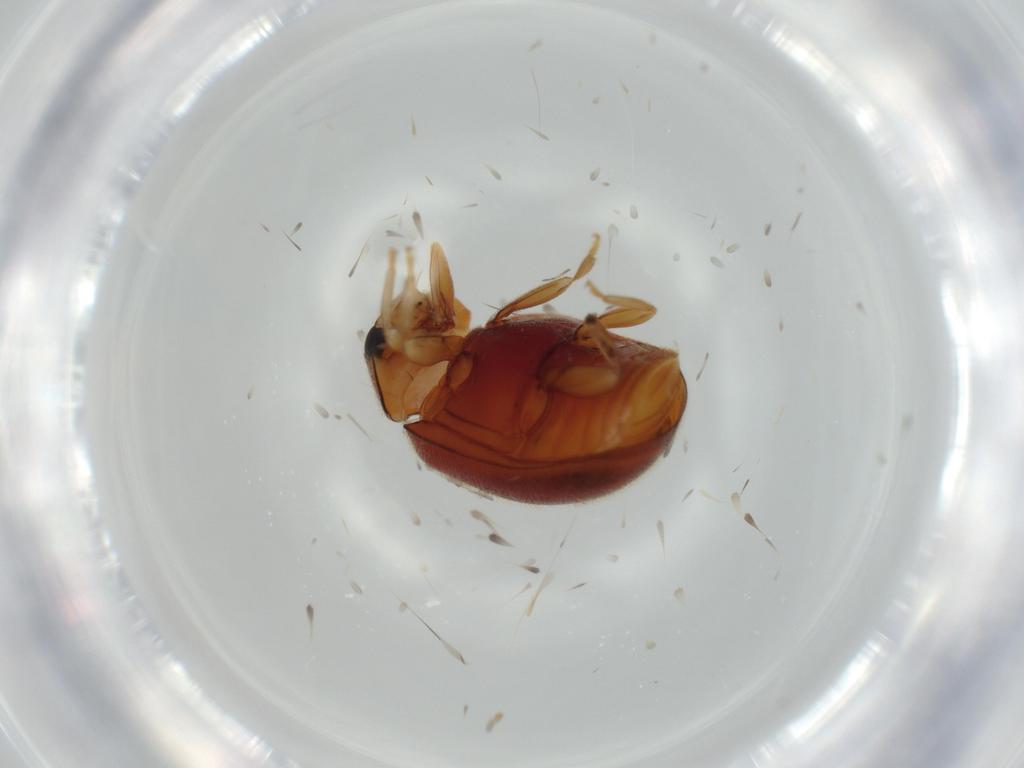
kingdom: Animalia
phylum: Arthropoda
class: Insecta
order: Coleoptera
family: Coccinellidae
